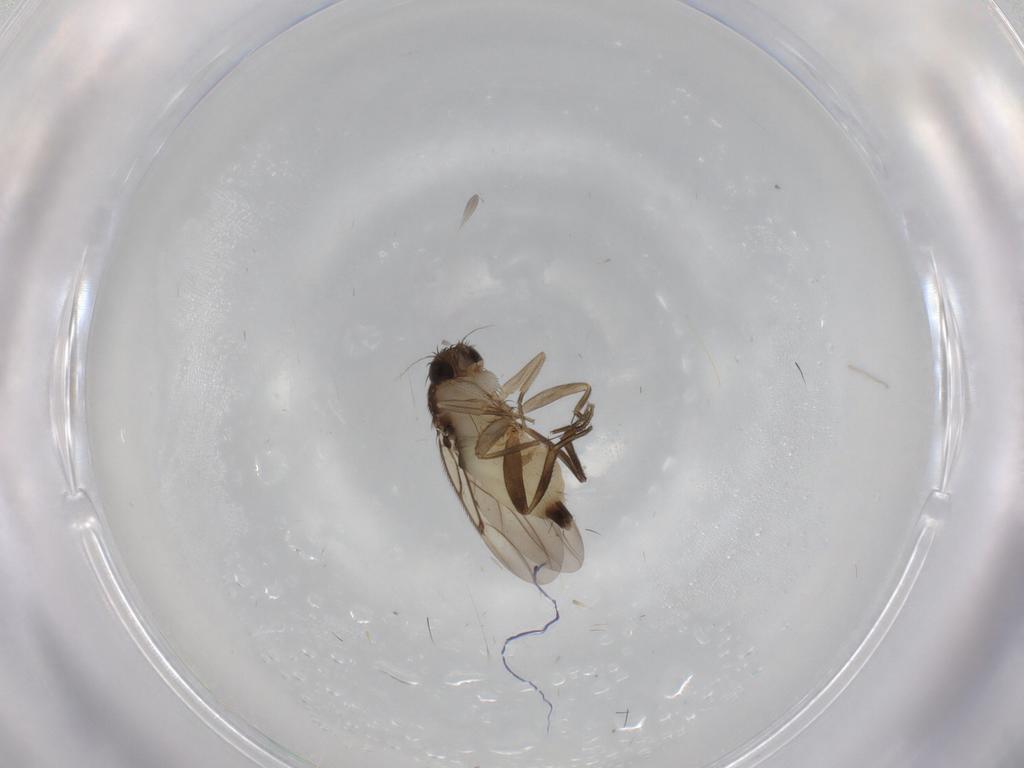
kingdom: Animalia
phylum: Arthropoda
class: Insecta
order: Diptera
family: Phoridae
